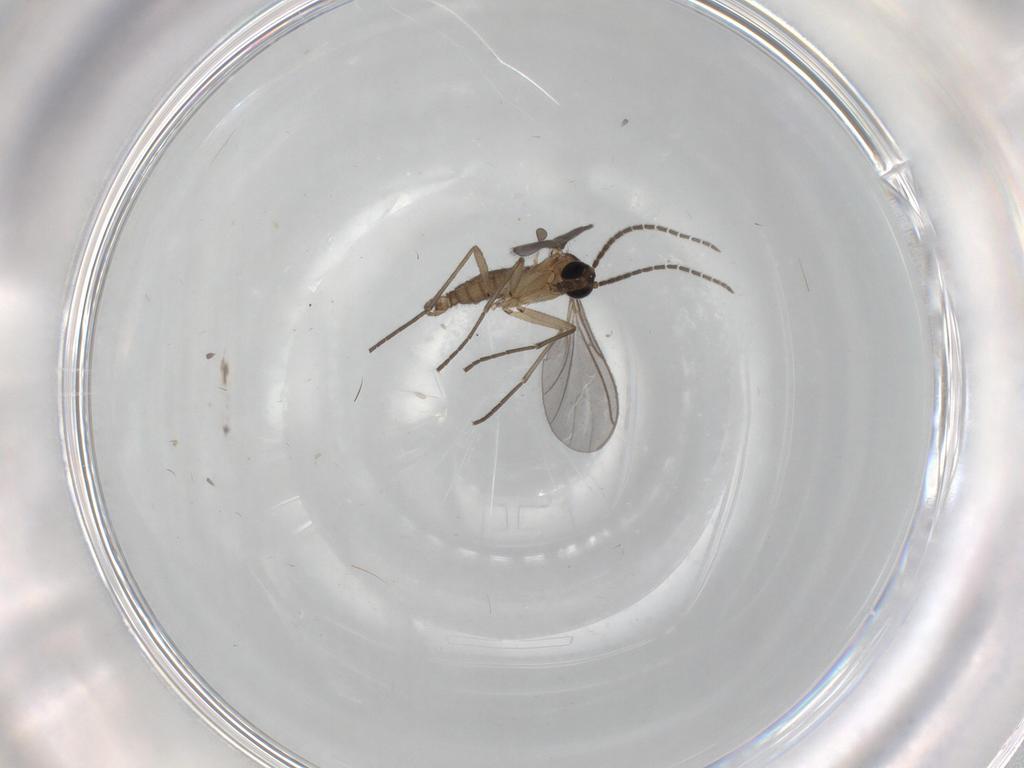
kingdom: Animalia
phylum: Arthropoda
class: Insecta
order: Diptera
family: Sciaridae
